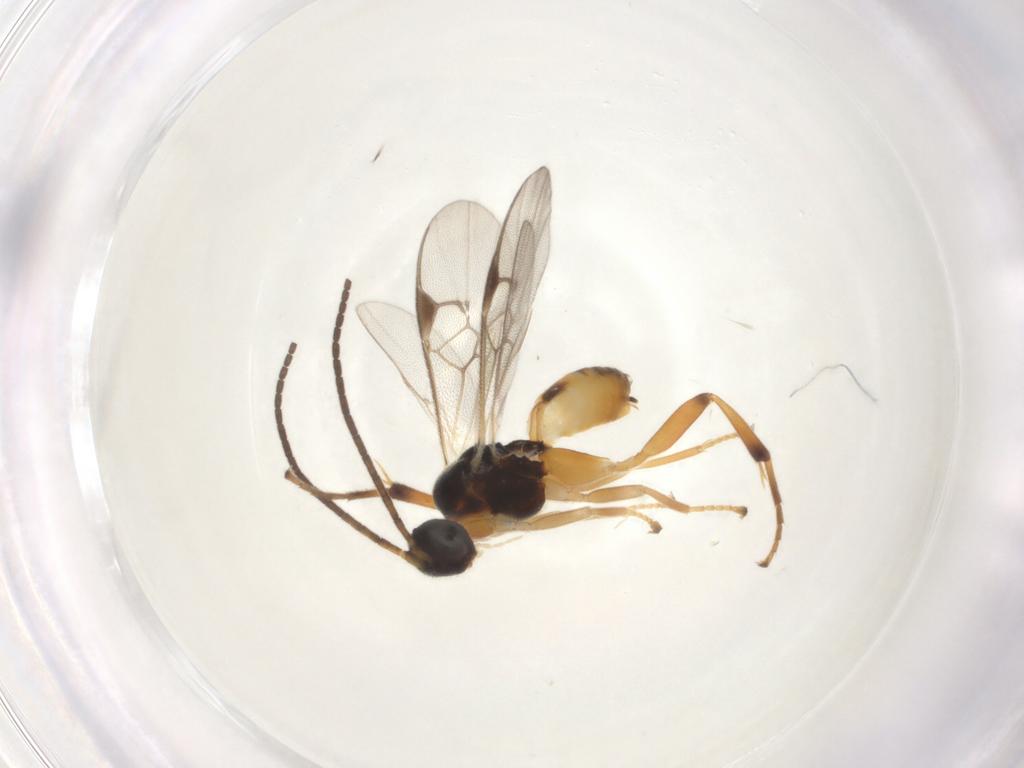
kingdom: Animalia
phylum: Arthropoda
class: Insecta
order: Hymenoptera
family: Braconidae
